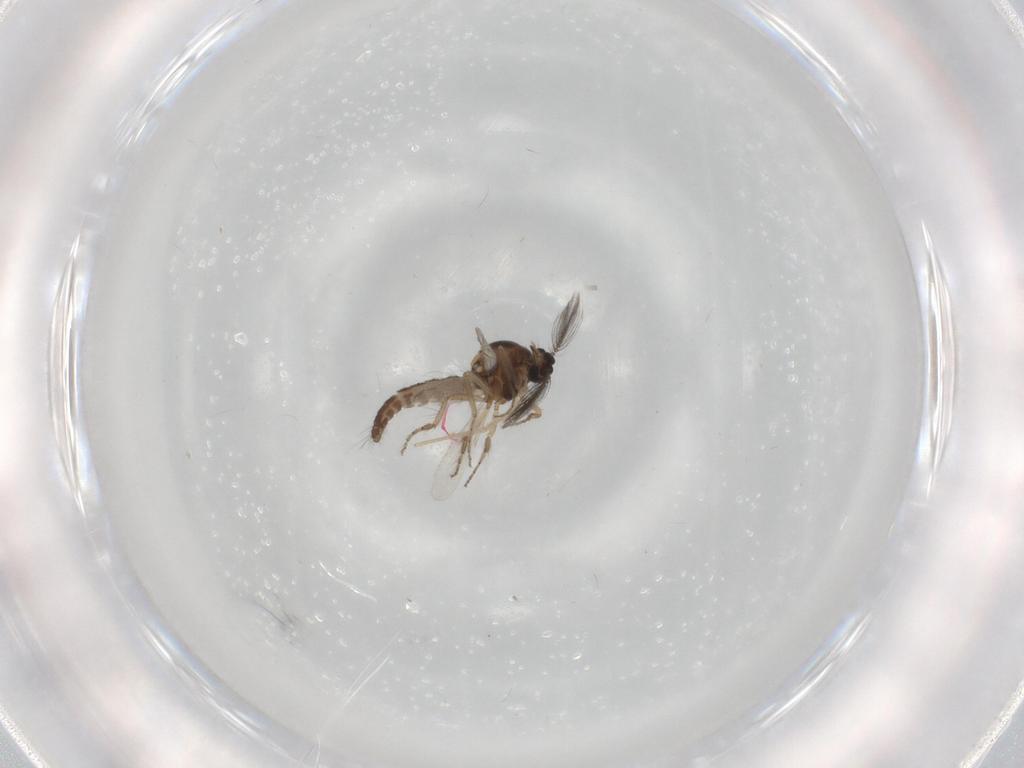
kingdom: Animalia
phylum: Arthropoda
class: Insecta
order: Diptera
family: Ceratopogonidae
